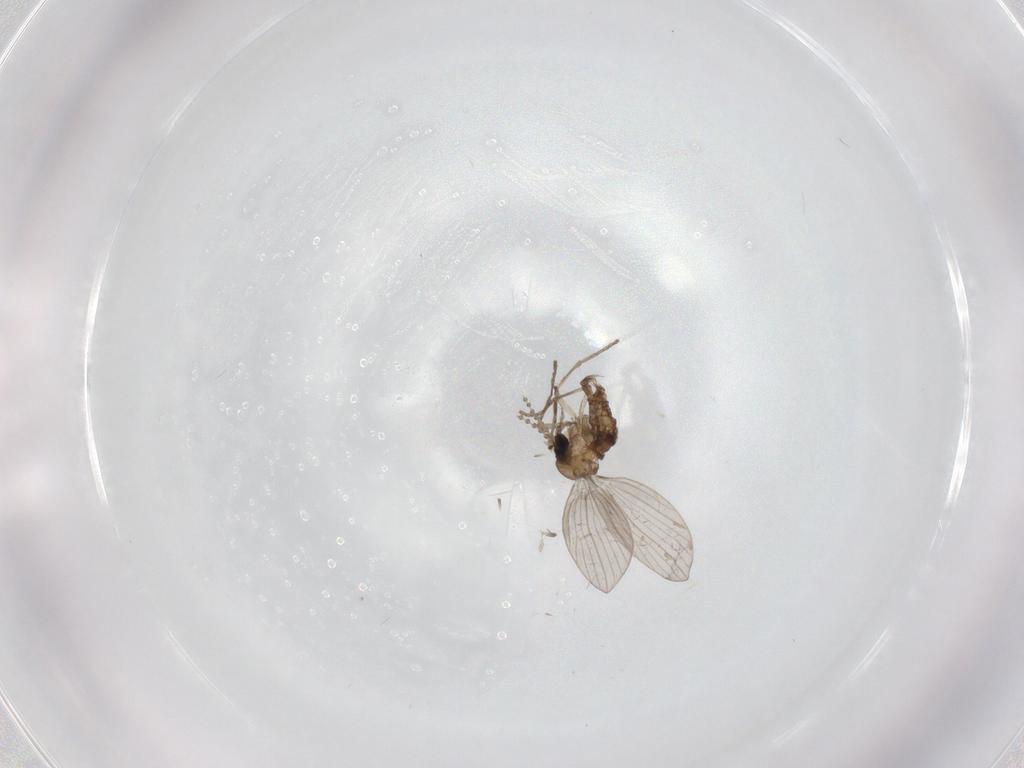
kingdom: Animalia
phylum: Arthropoda
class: Insecta
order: Diptera
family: Psychodidae
